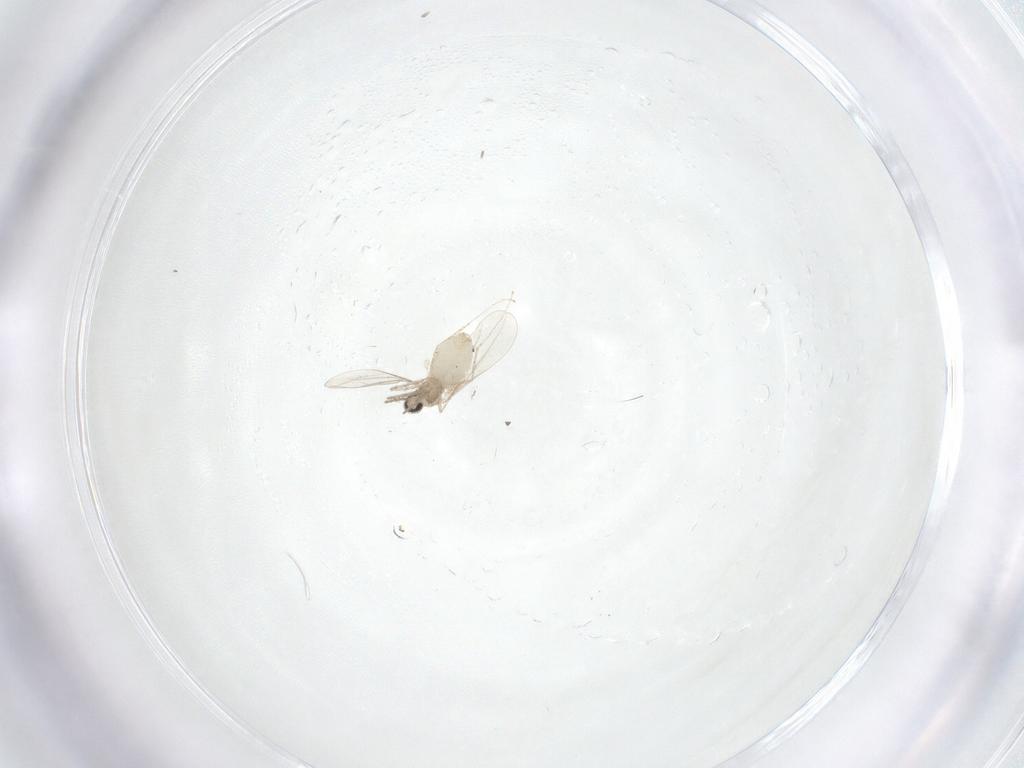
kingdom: Animalia
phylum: Arthropoda
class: Insecta
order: Diptera
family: Cecidomyiidae
